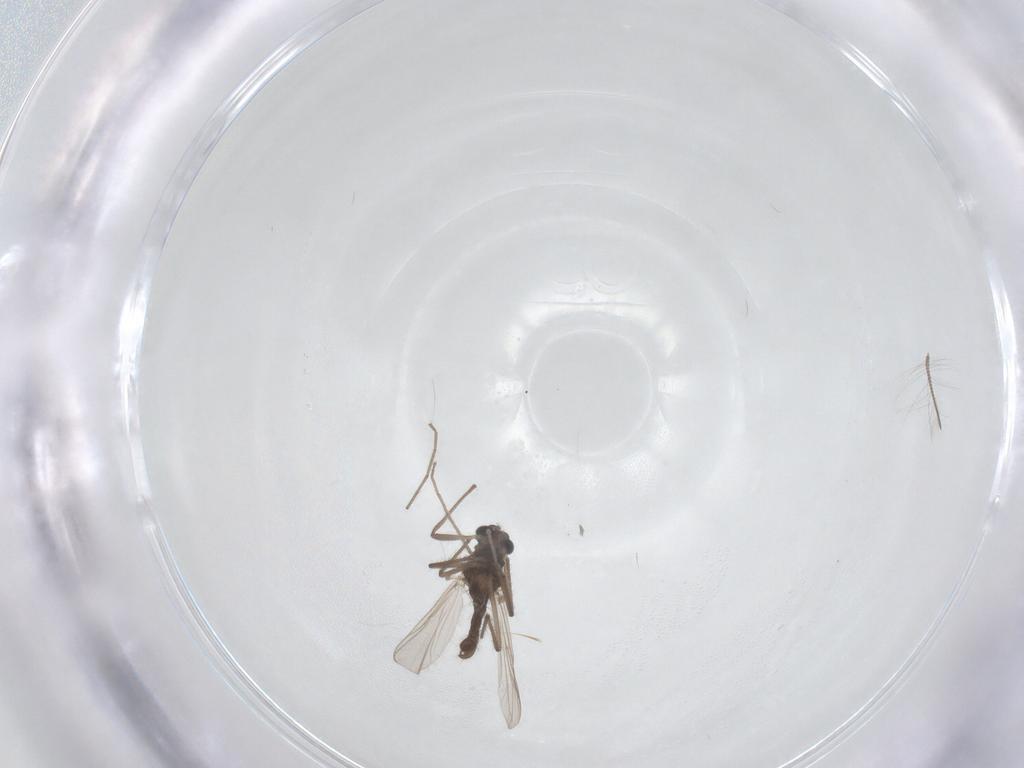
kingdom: Animalia
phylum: Arthropoda
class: Insecta
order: Diptera
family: Chironomidae
